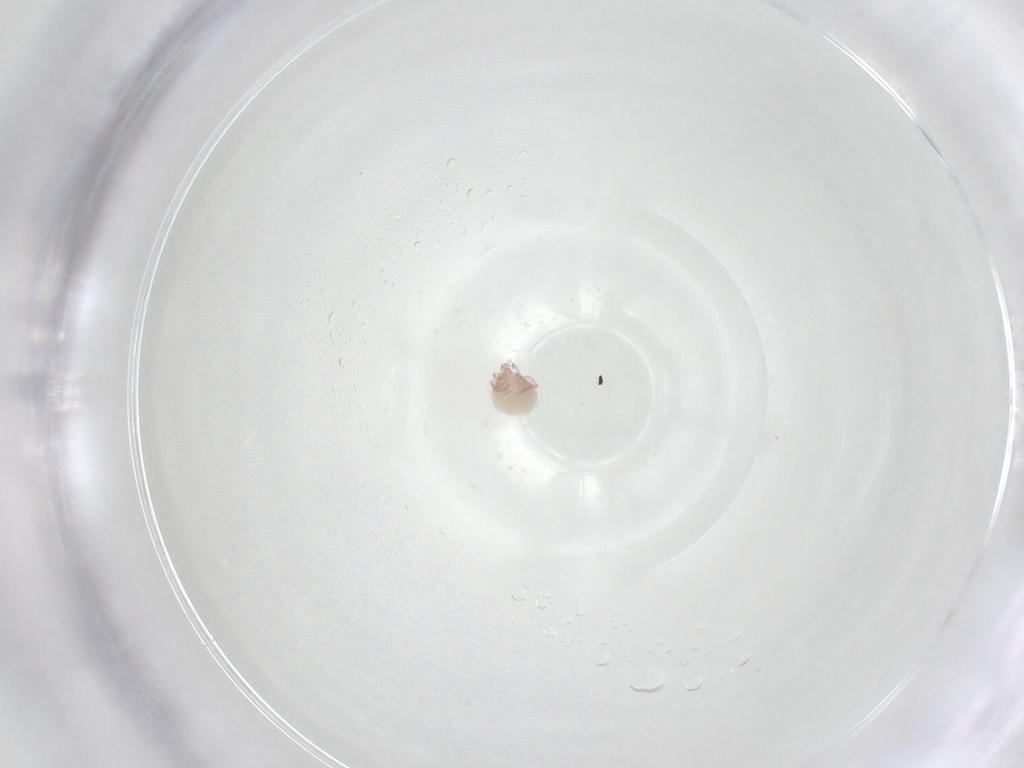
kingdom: Animalia
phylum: Arthropoda
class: Arachnida
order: Trombidiformes
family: Pionidae
